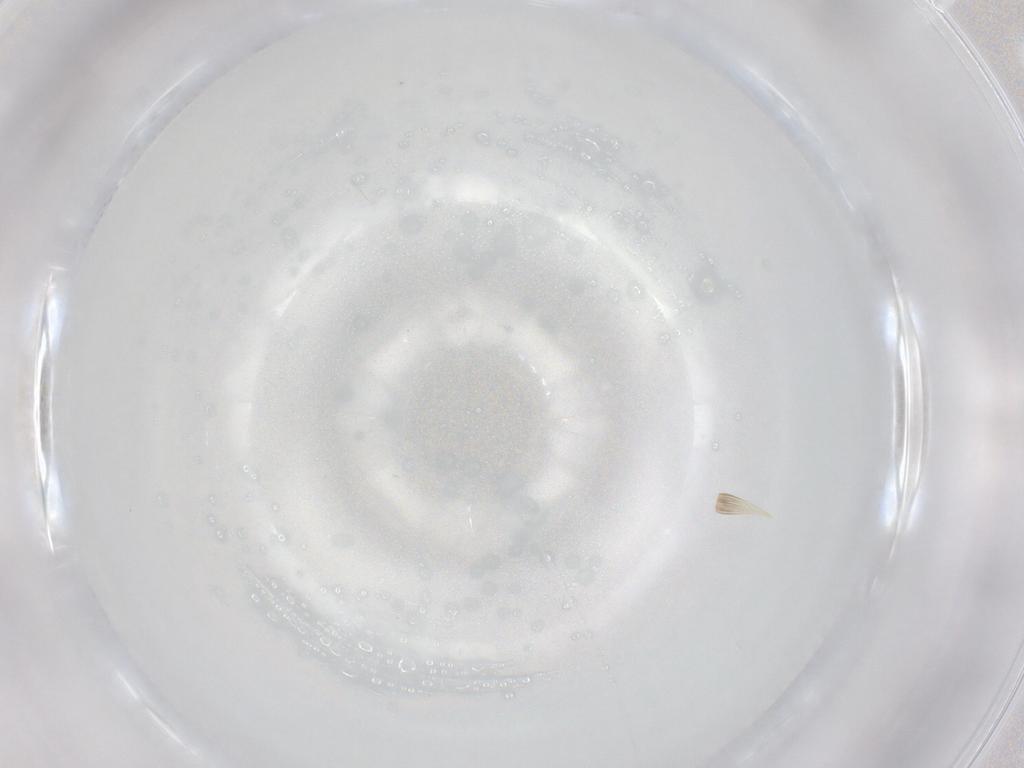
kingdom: Animalia
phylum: Arthropoda
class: Insecta
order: Diptera
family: Cecidomyiidae
